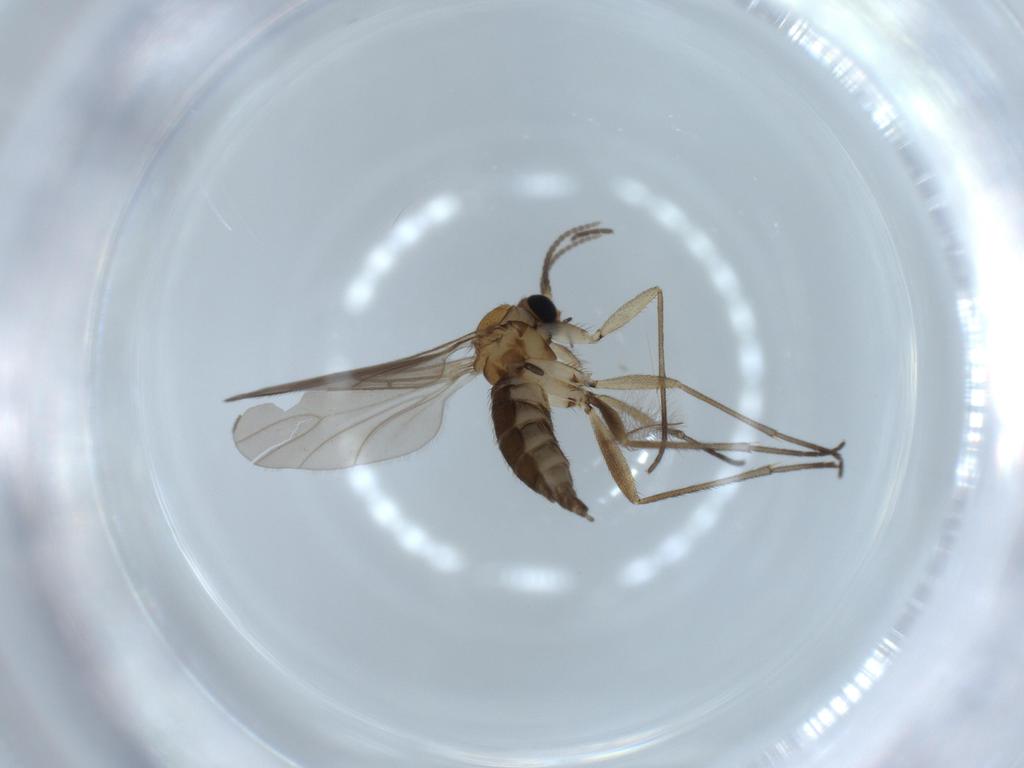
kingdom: Animalia
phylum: Arthropoda
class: Insecta
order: Diptera
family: Sciaridae
